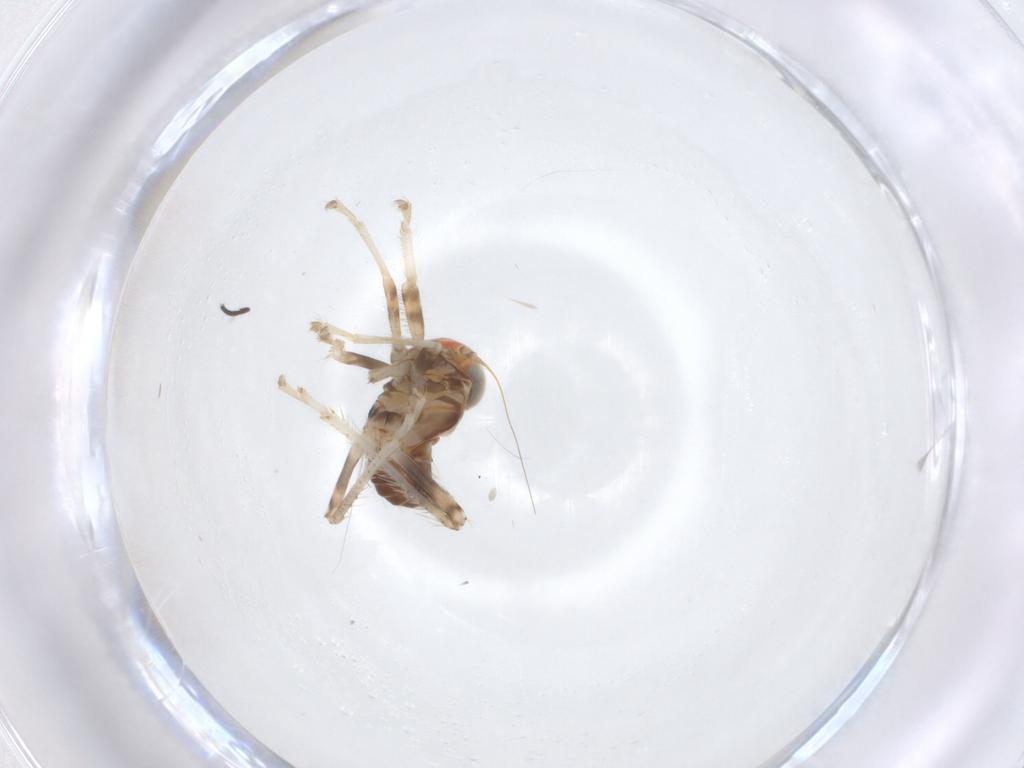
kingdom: Animalia
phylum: Arthropoda
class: Insecta
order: Hemiptera
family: Cicadellidae
